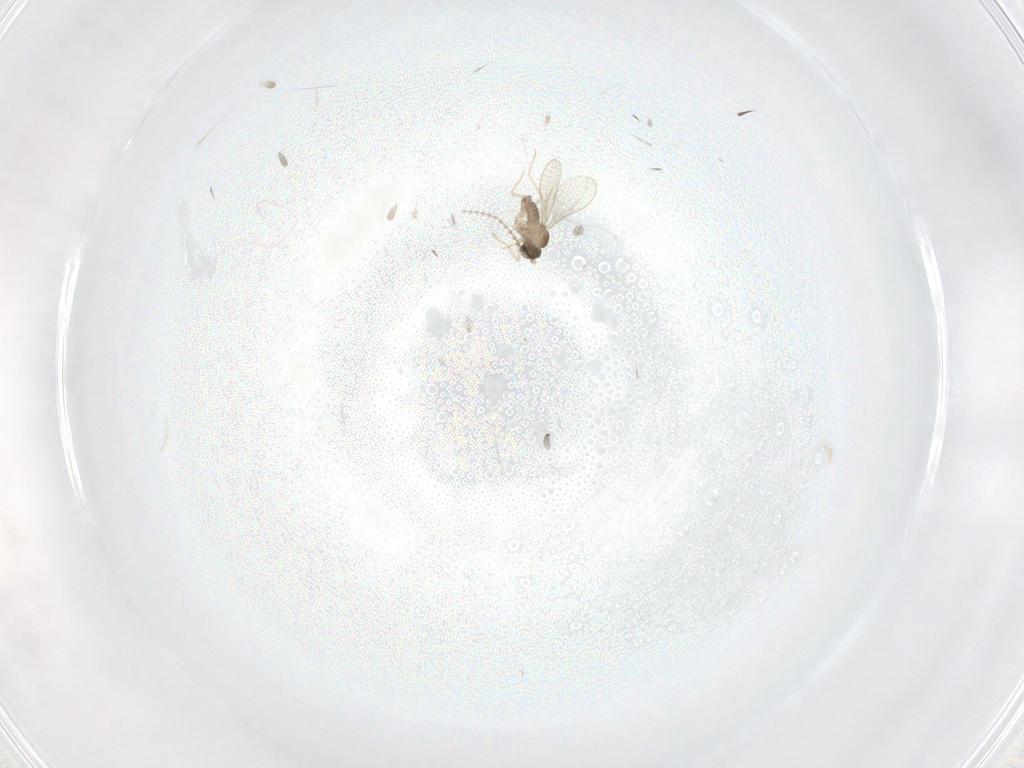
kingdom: Animalia
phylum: Arthropoda
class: Insecta
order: Diptera
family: Cecidomyiidae
